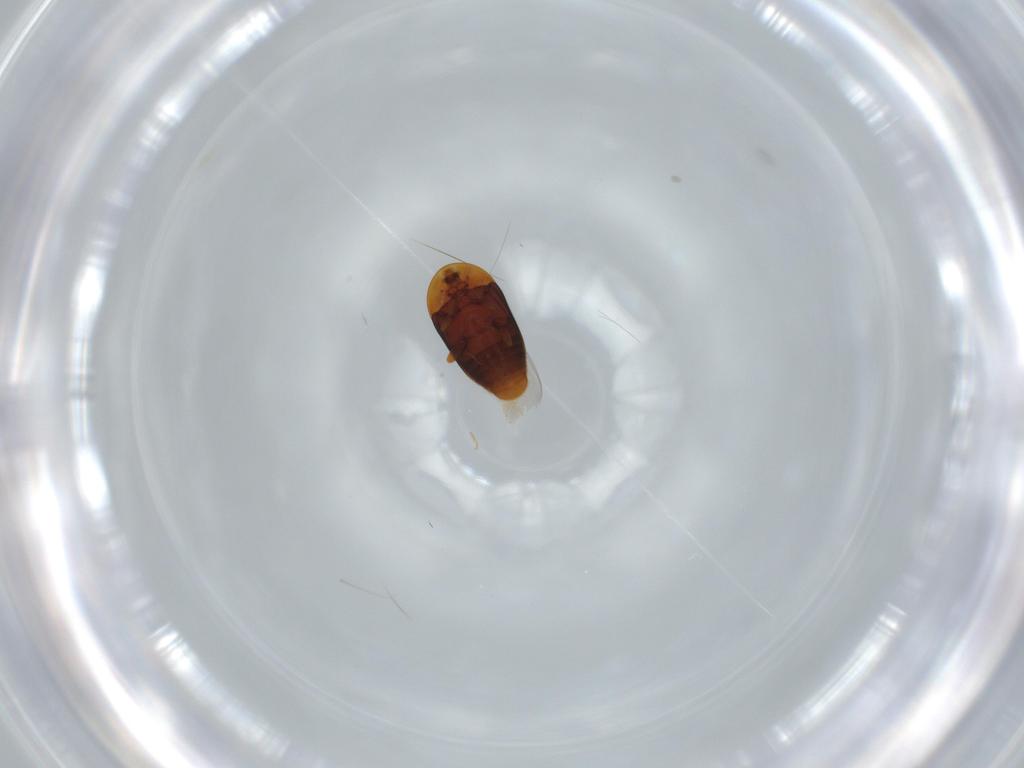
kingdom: Animalia
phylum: Arthropoda
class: Insecta
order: Coleoptera
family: Corylophidae
